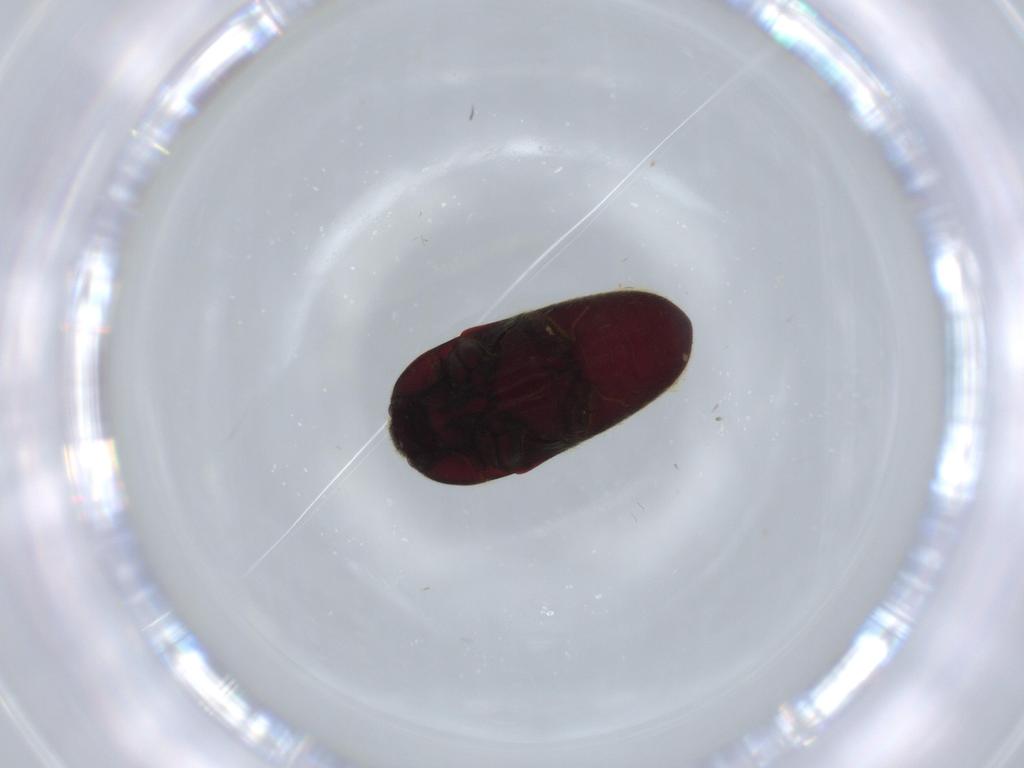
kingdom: Animalia
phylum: Arthropoda
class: Insecta
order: Coleoptera
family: Throscidae
